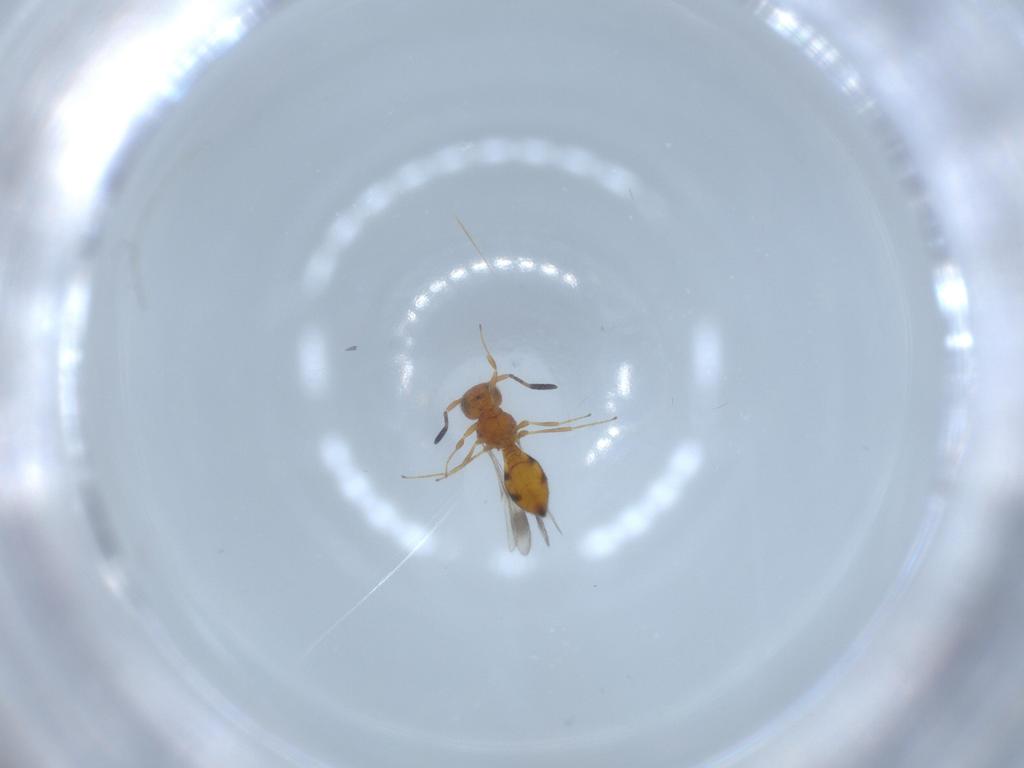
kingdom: Animalia
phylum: Arthropoda
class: Insecta
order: Hymenoptera
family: Scelionidae
